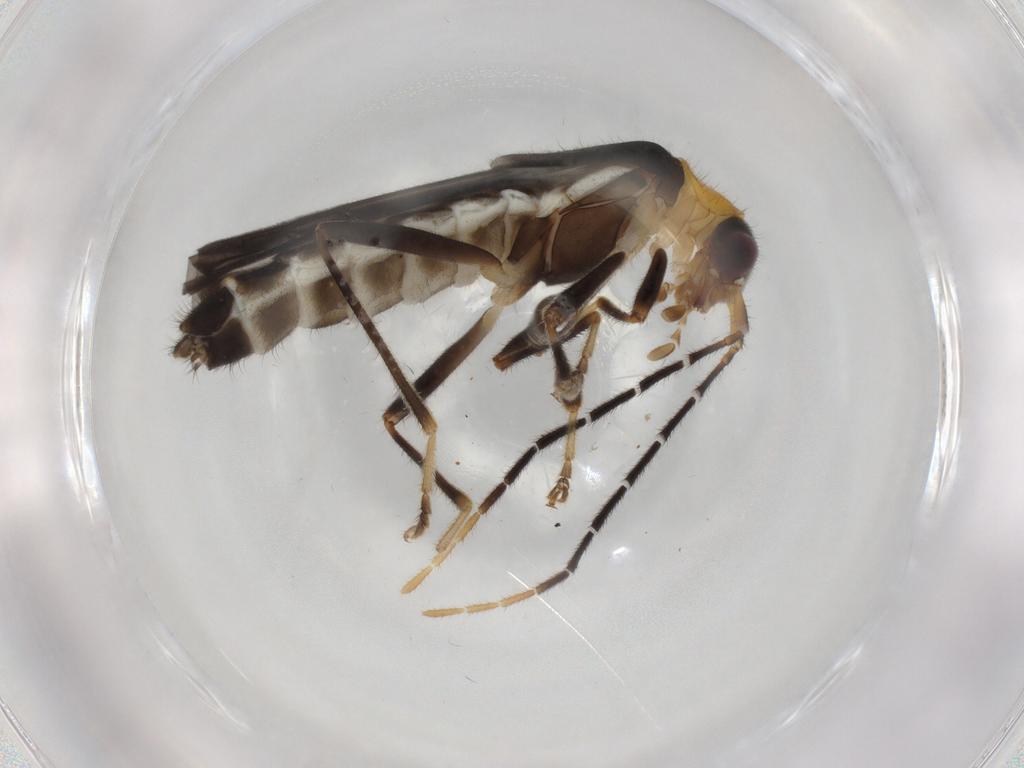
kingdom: Animalia
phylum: Arthropoda
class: Insecta
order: Coleoptera
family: Cantharidae
